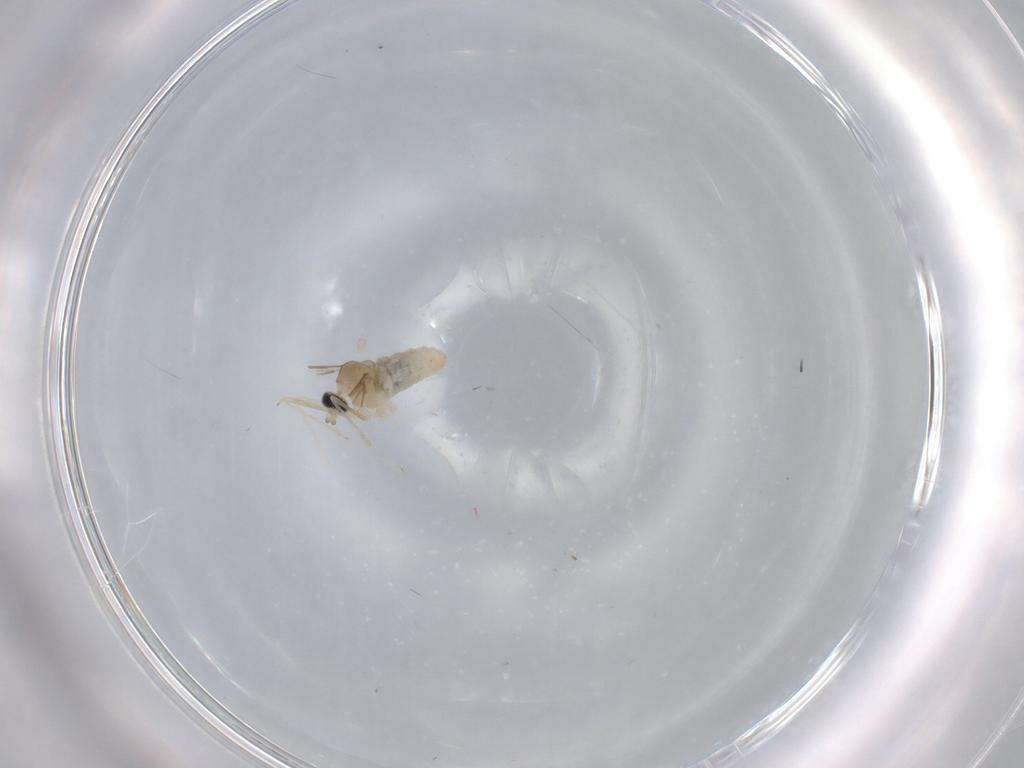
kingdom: Animalia
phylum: Arthropoda
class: Insecta
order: Diptera
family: Cecidomyiidae
